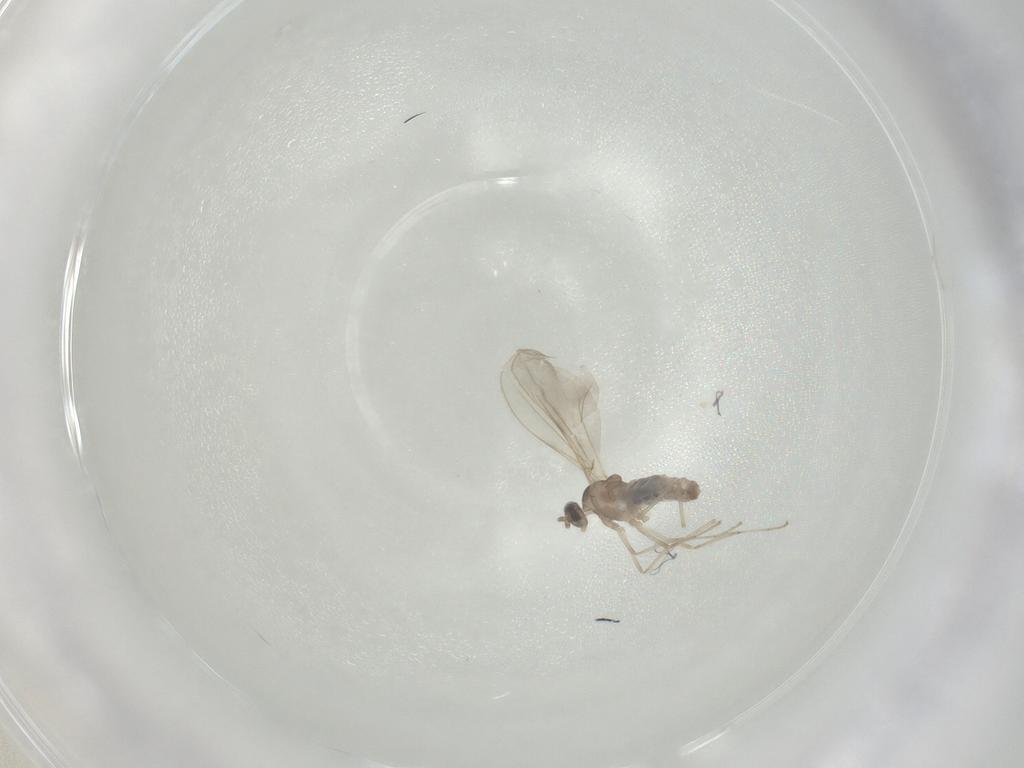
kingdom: Animalia
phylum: Arthropoda
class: Insecta
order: Diptera
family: Cecidomyiidae
